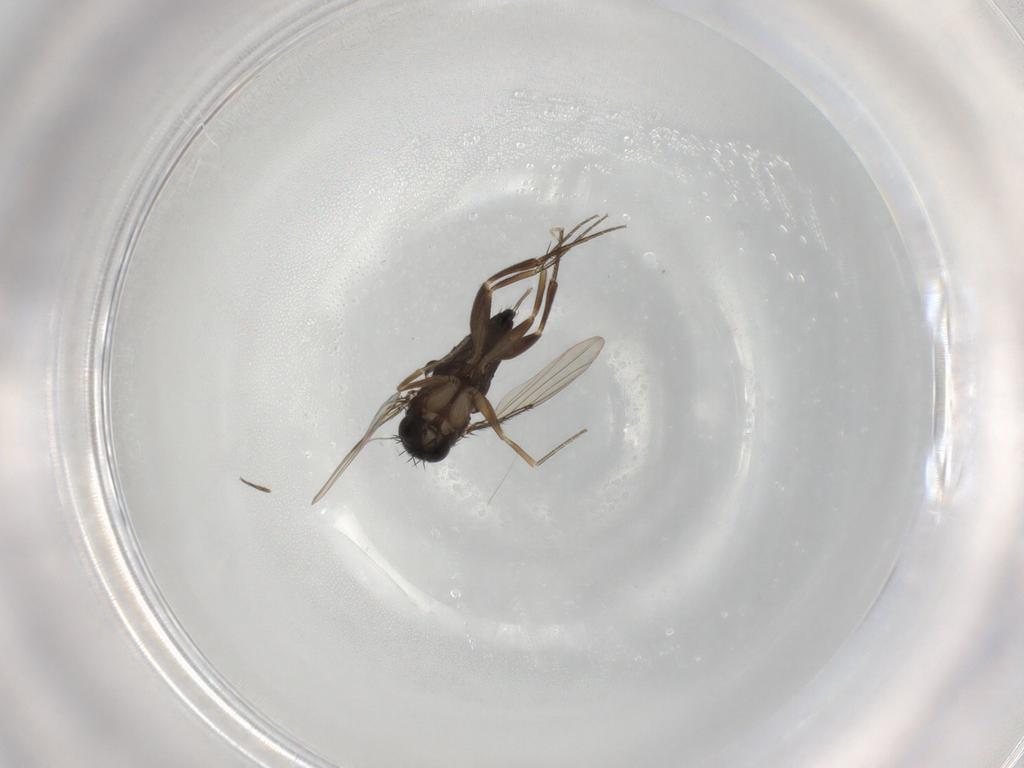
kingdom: Animalia
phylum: Arthropoda
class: Insecta
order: Diptera
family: Phoridae
